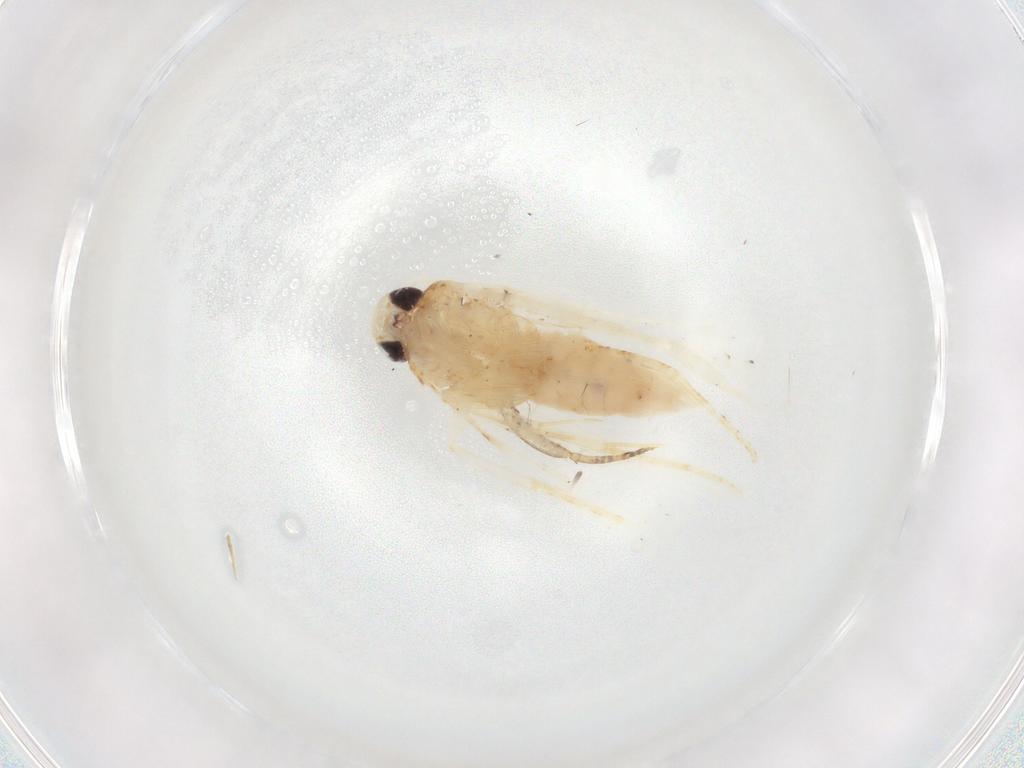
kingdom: Animalia
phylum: Arthropoda
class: Insecta
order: Lepidoptera
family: Gelechiidae
